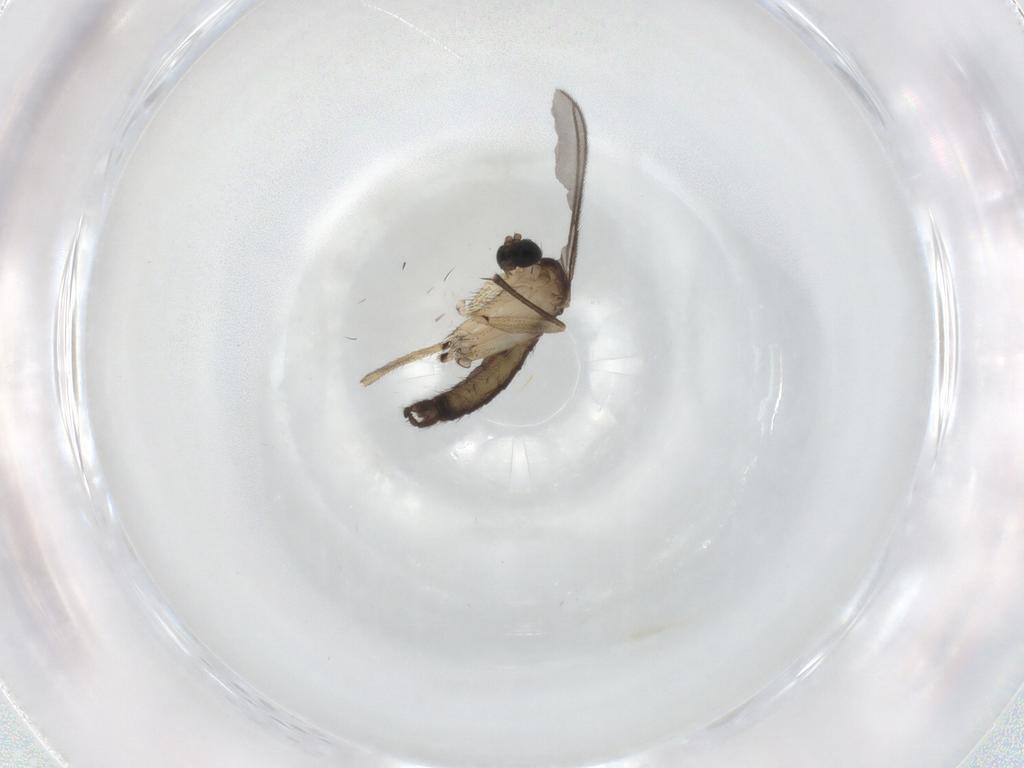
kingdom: Animalia
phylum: Arthropoda
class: Insecta
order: Diptera
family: Sciaridae
